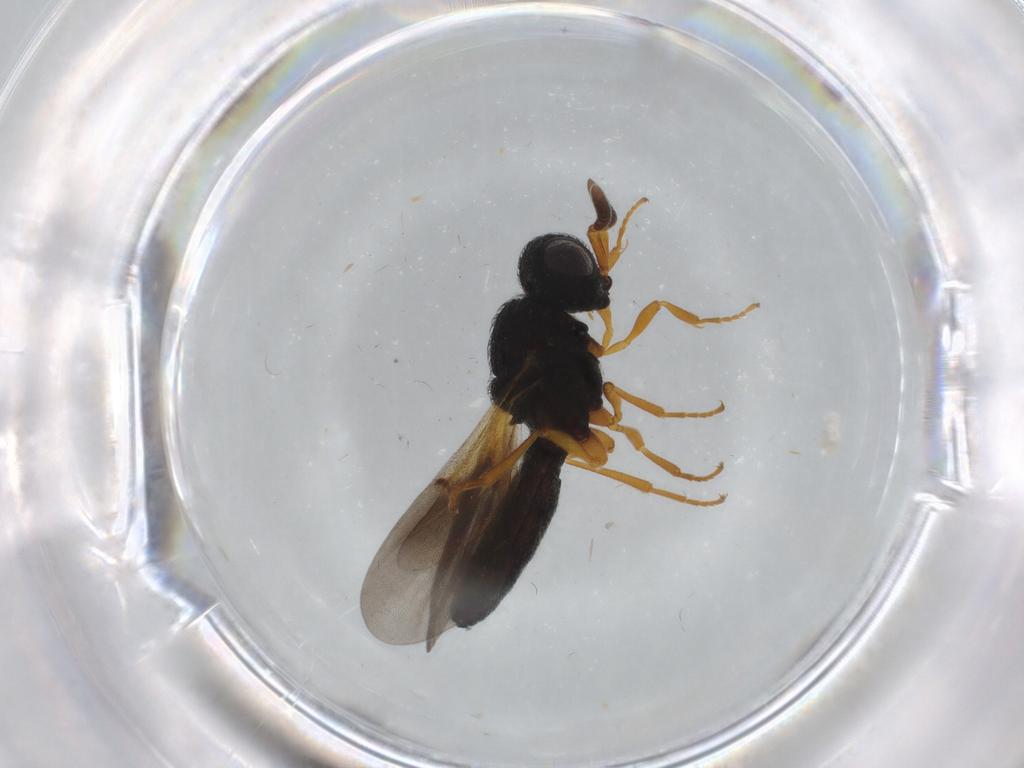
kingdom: Animalia
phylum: Arthropoda
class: Insecta
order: Hymenoptera
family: Scelionidae
